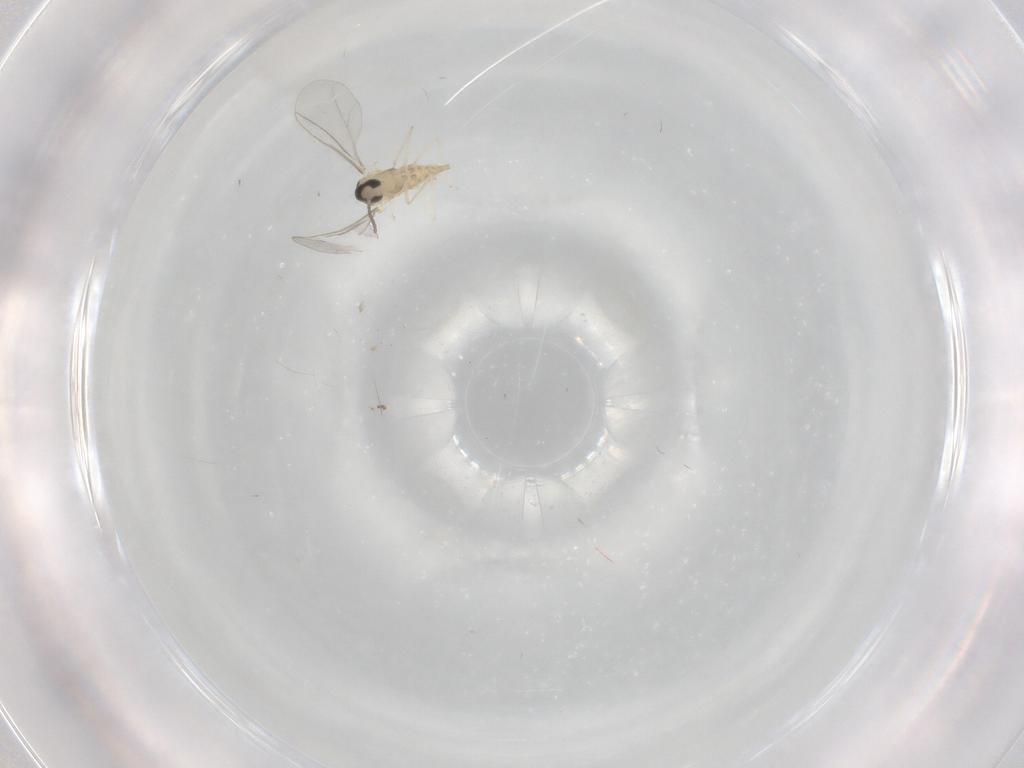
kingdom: Animalia
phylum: Arthropoda
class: Insecta
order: Diptera
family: Cecidomyiidae
